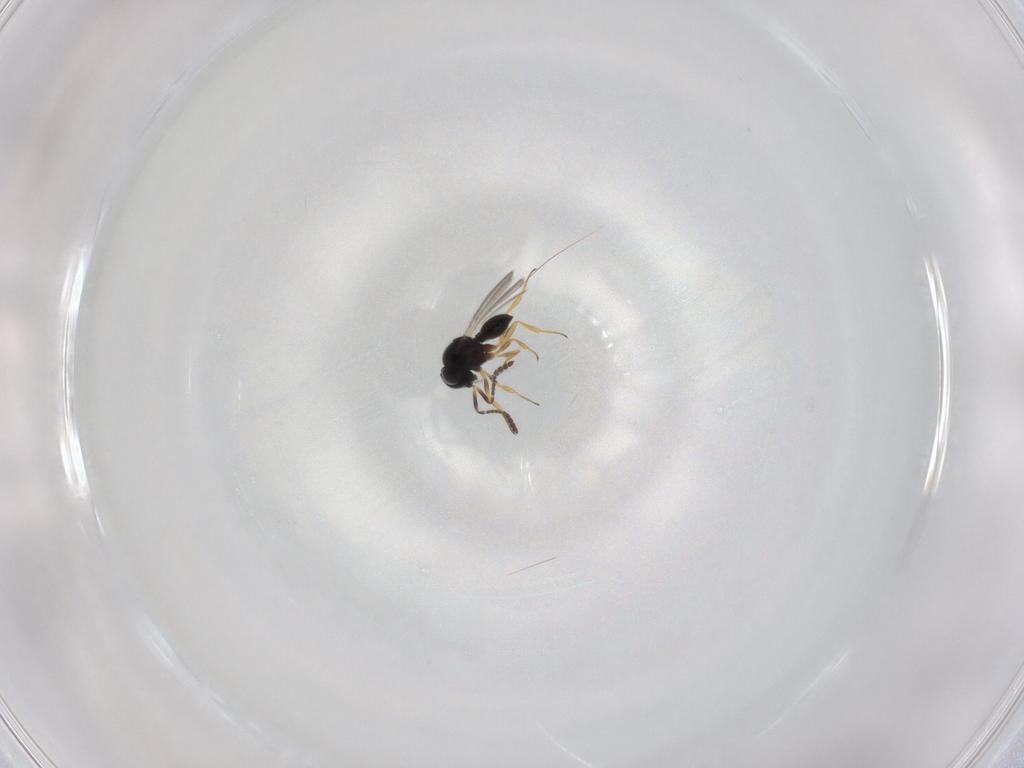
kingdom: Animalia
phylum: Arthropoda
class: Insecta
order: Hymenoptera
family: Scelionidae
